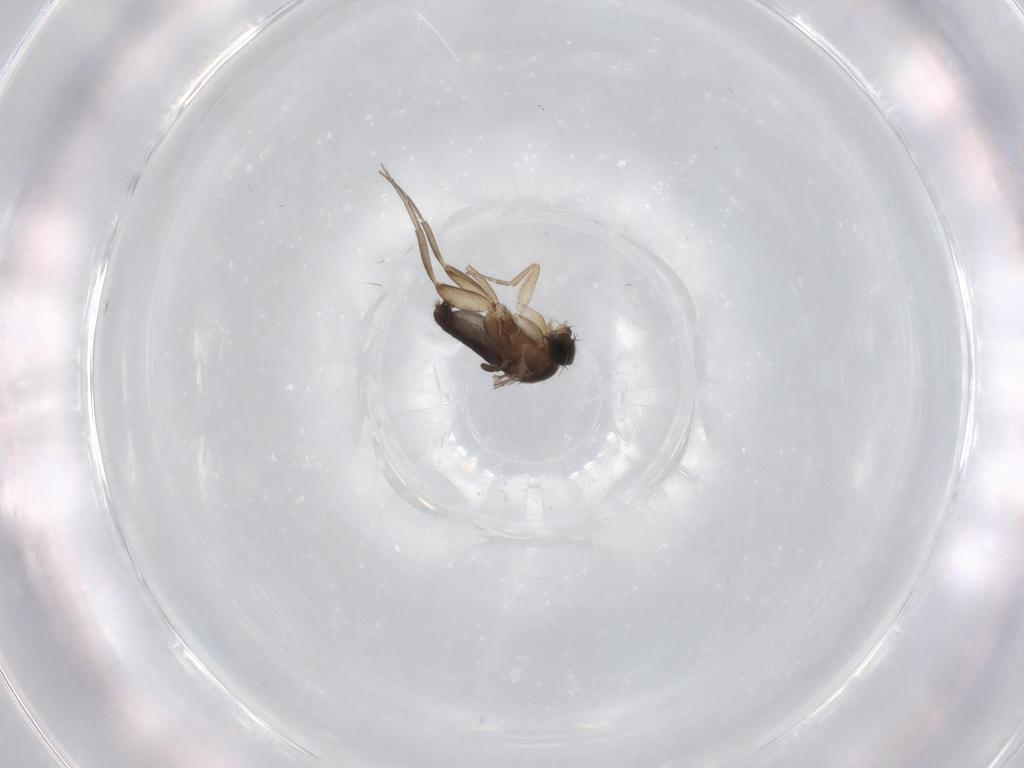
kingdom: Animalia
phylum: Arthropoda
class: Insecta
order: Diptera
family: Phoridae
